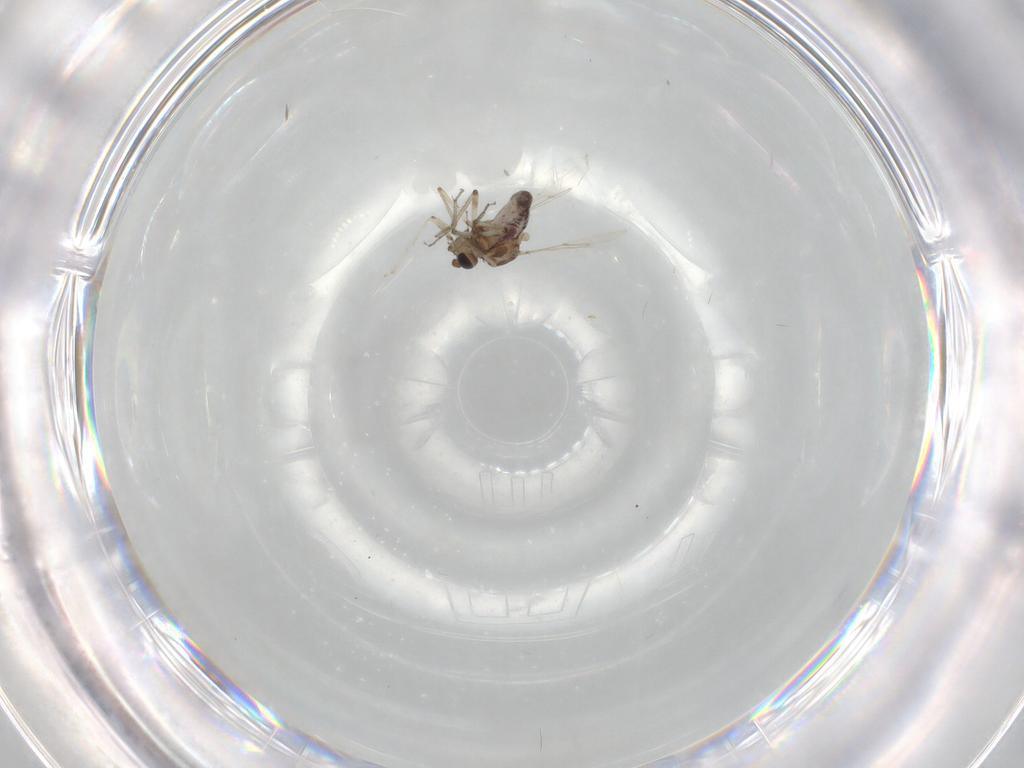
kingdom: Animalia
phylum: Arthropoda
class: Insecta
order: Diptera
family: Ceratopogonidae
